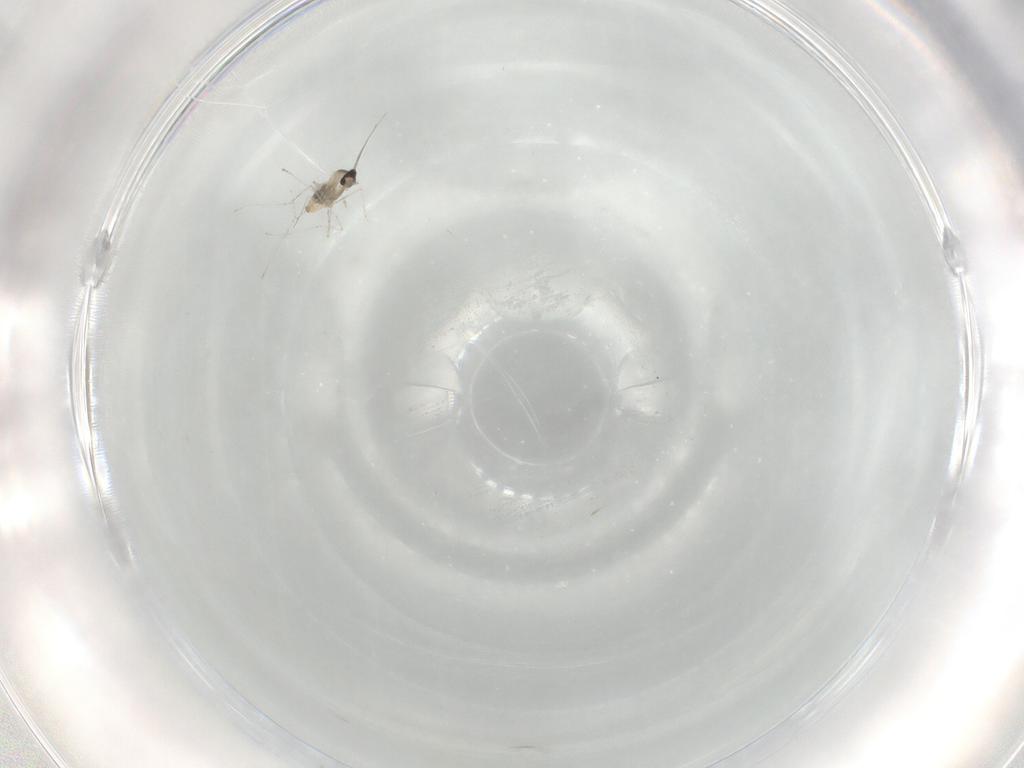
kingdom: Animalia
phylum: Arthropoda
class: Insecta
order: Diptera
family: Cecidomyiidae
